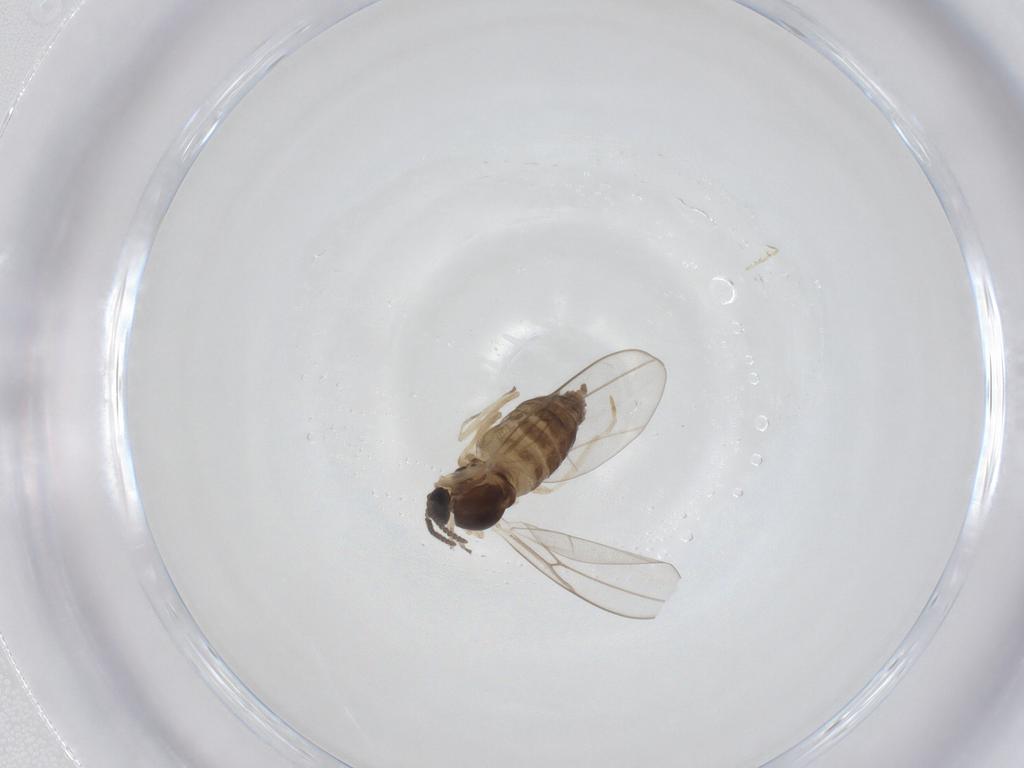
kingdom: Animalia
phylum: Arthropoda
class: Insecta
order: Diptera
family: Cecidomyiidae
